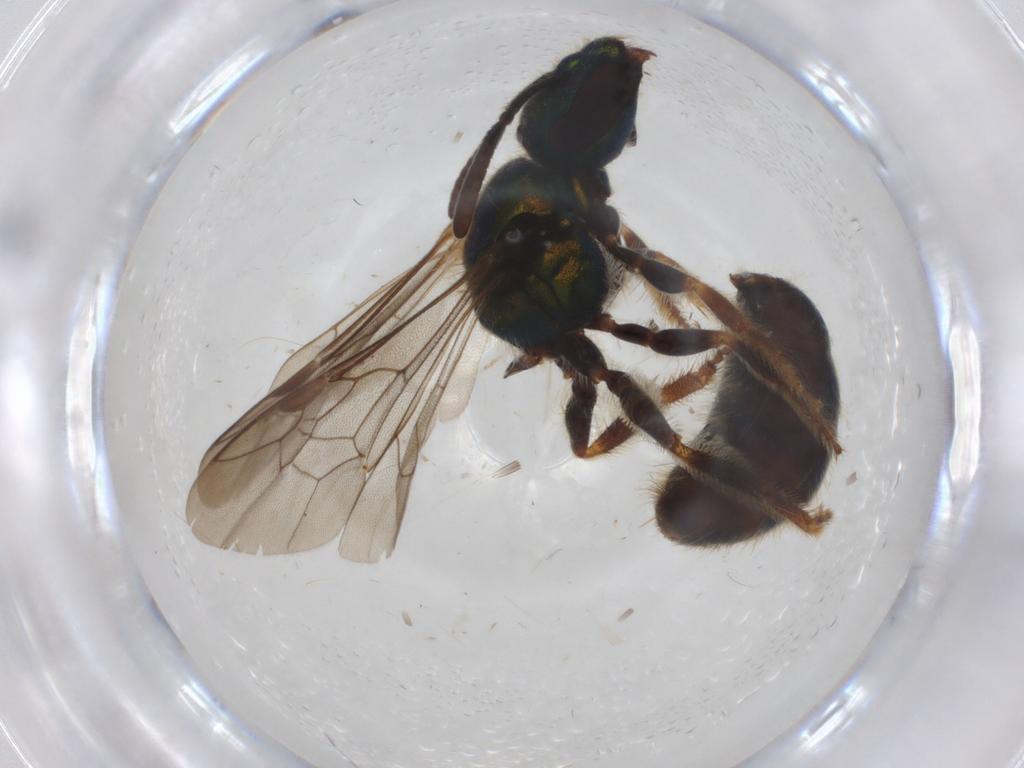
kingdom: Animalia
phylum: Arthropoda
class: Insecta
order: Hymenoptera
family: Halictidae
